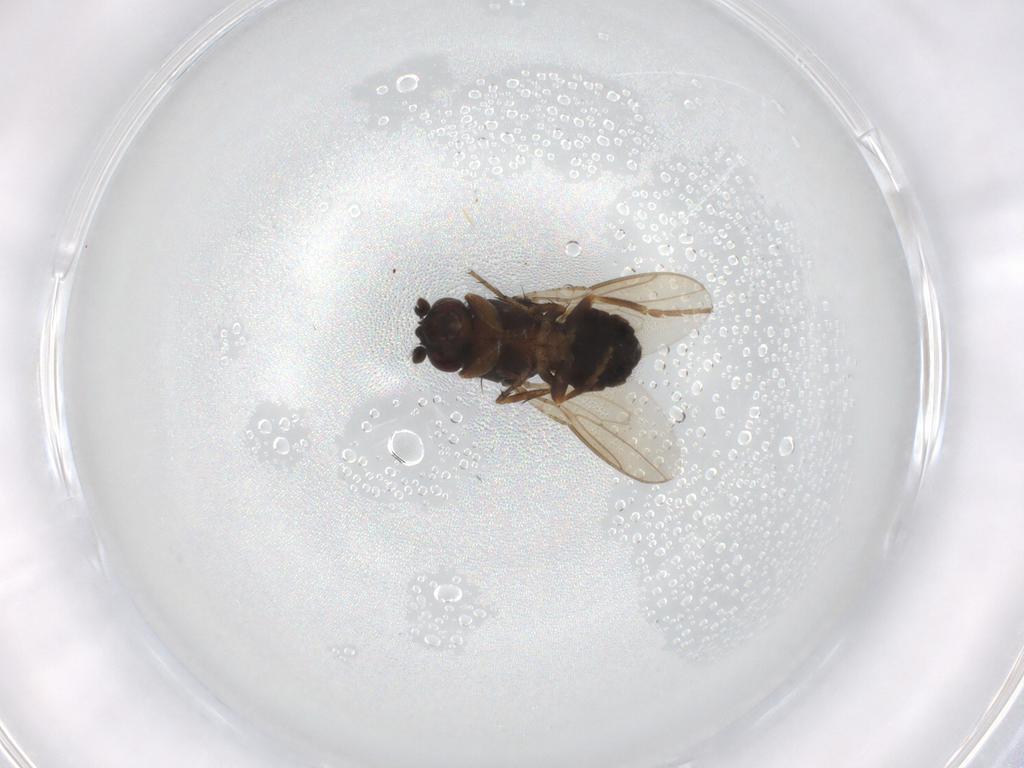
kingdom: Animalia
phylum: Arthropoda
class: Insecta
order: Diptera
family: Sphaeroceridae
